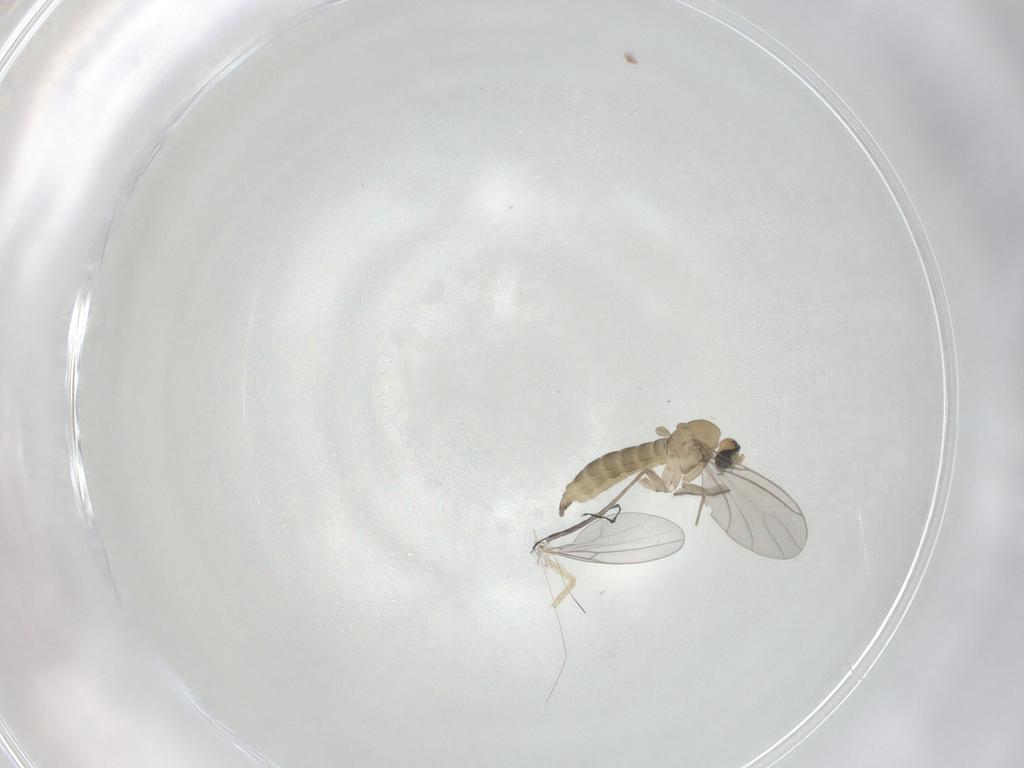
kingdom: Animalia
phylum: Arthropoda
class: Insecta
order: Diptera
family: Sciaridae
